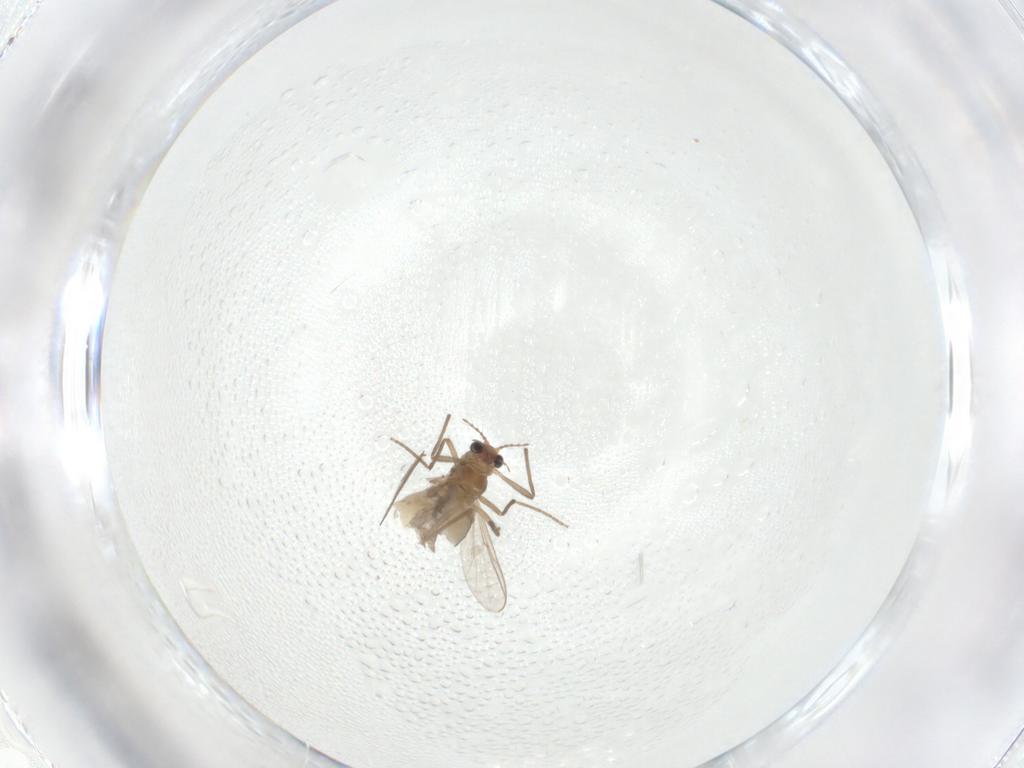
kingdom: Animalia
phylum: Arthropoda
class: Insecta
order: Diptera
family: Chironomidae
